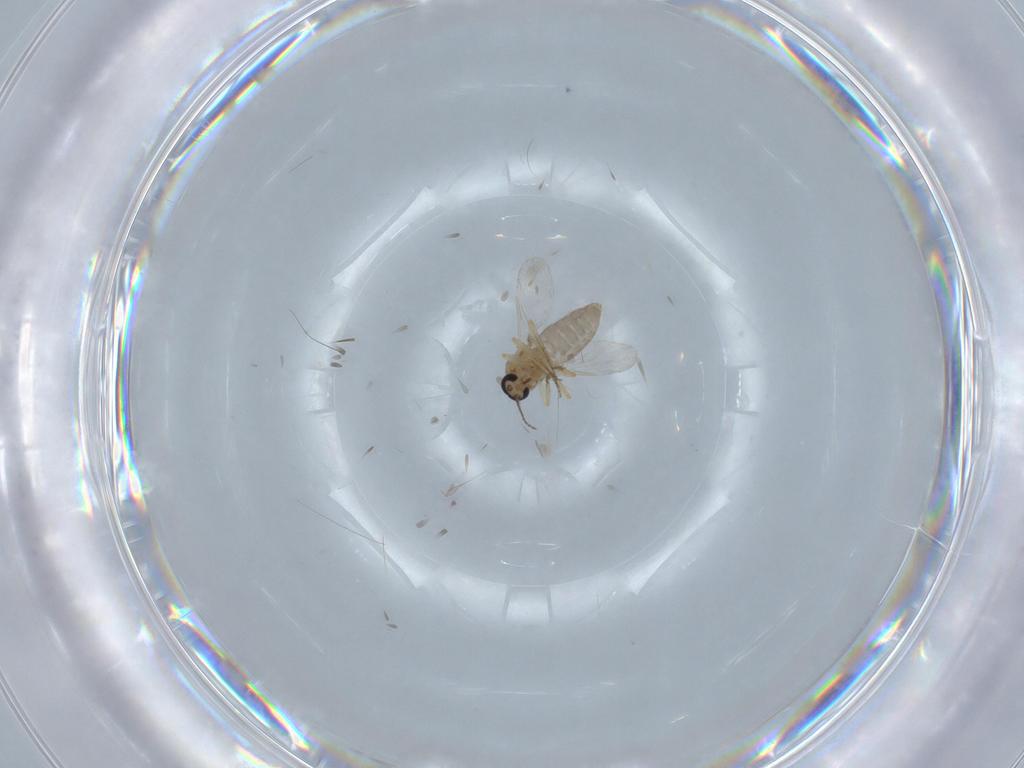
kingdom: Animalia
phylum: Arthropoda
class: Insecta
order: Diptera
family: Ceratopogonidae
